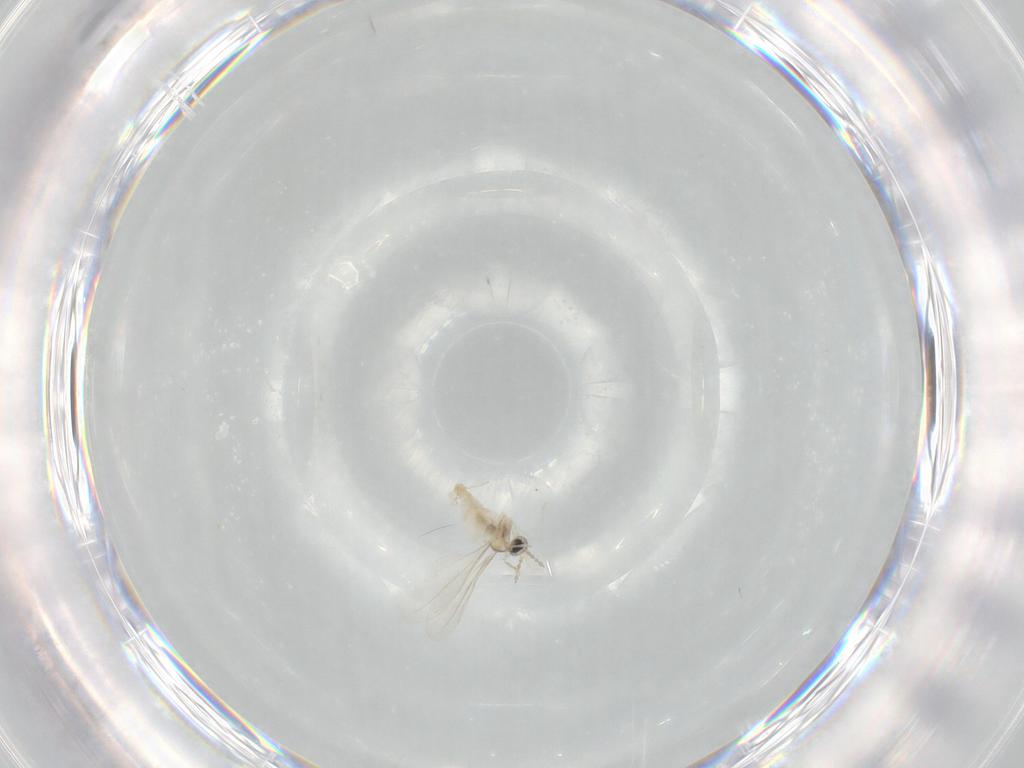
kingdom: Animalia
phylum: Arthropoda
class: Insecta
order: Diptera
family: Cecidomyiidae
